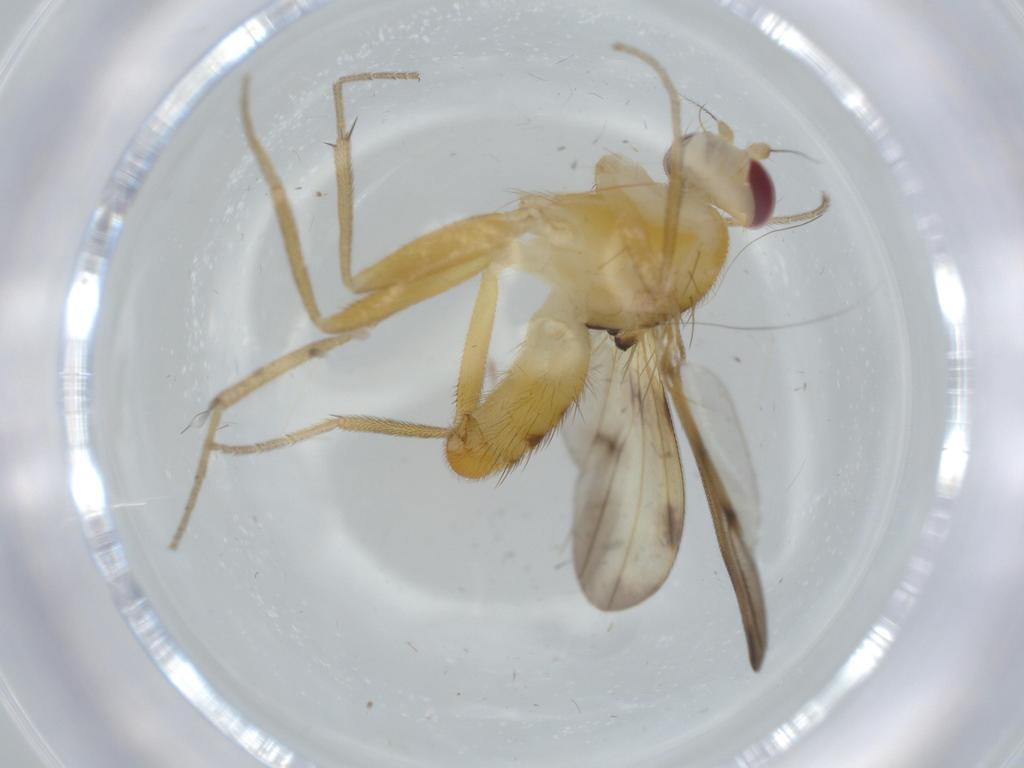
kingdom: Animalia
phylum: Arthropoda
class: Insecta
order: Diptera
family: Clusiidae
